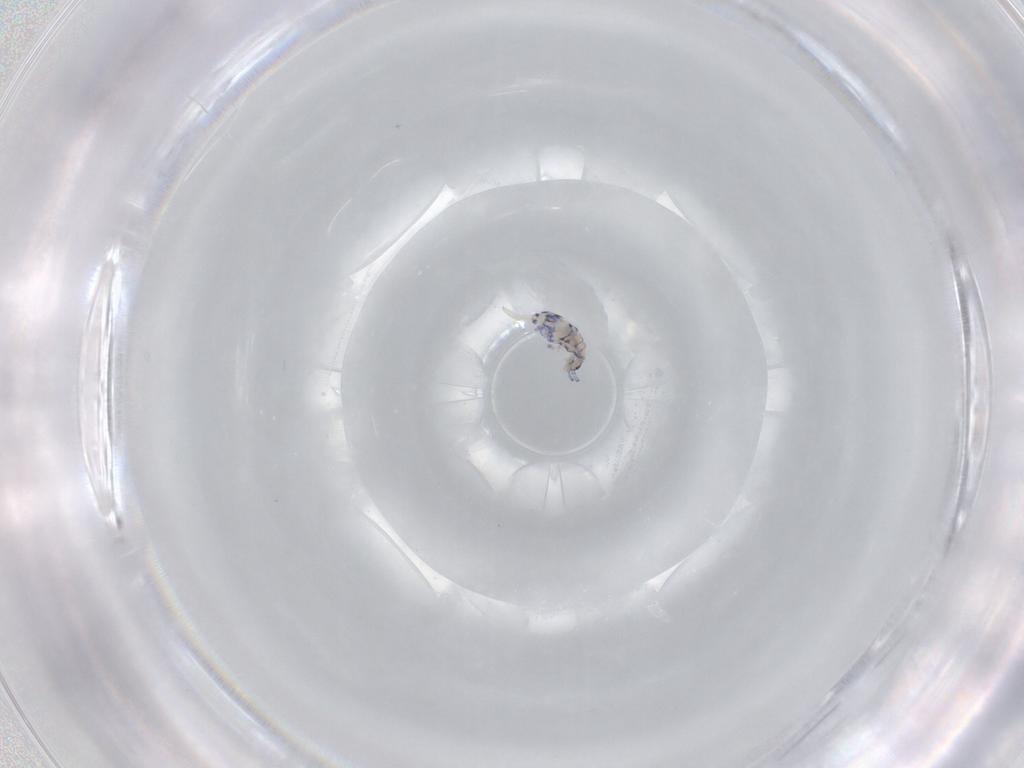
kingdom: Animalia
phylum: Arthropoda
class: Collembola
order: Entomobryomorpha
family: Entomobryidae
